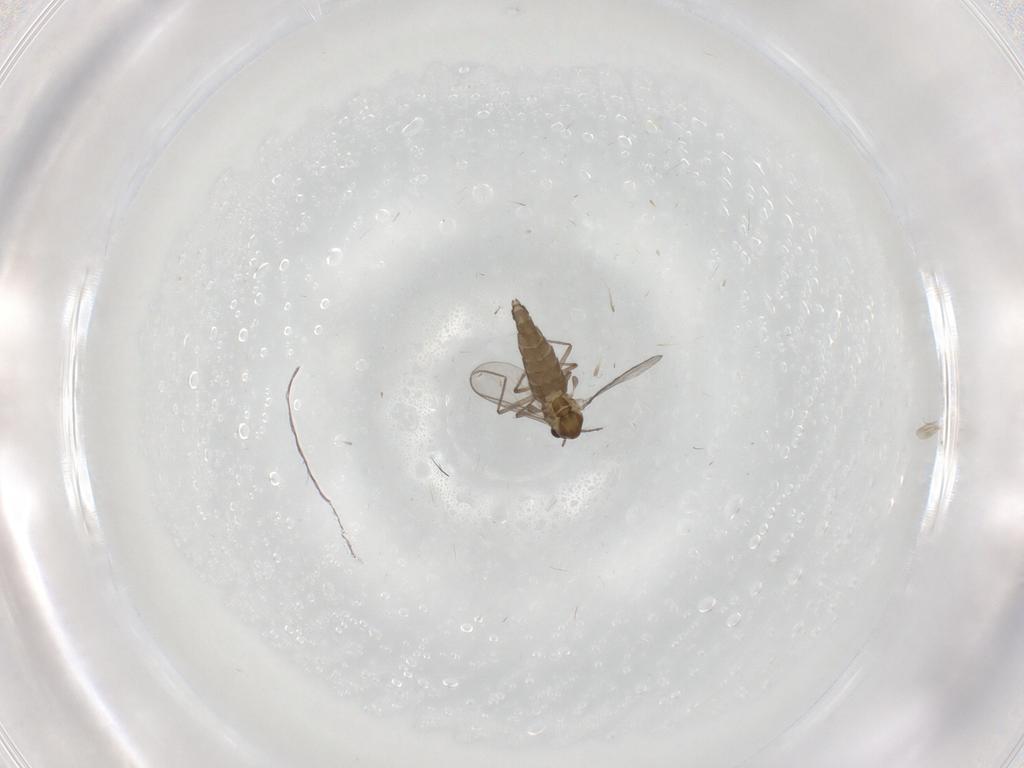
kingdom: Animalia
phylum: Arthropoda
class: Insecta
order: Diptera
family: Chironomidae
